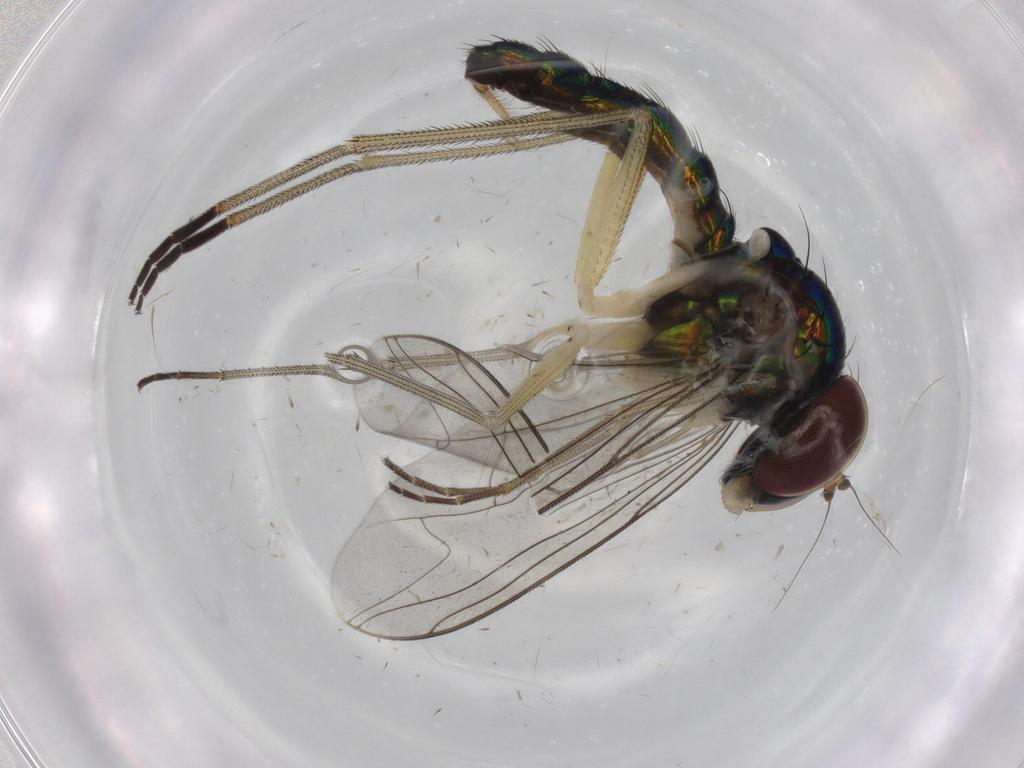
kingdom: Animalia
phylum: Arthropoda
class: Insecta
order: Diptera
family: Dolichopodidae
